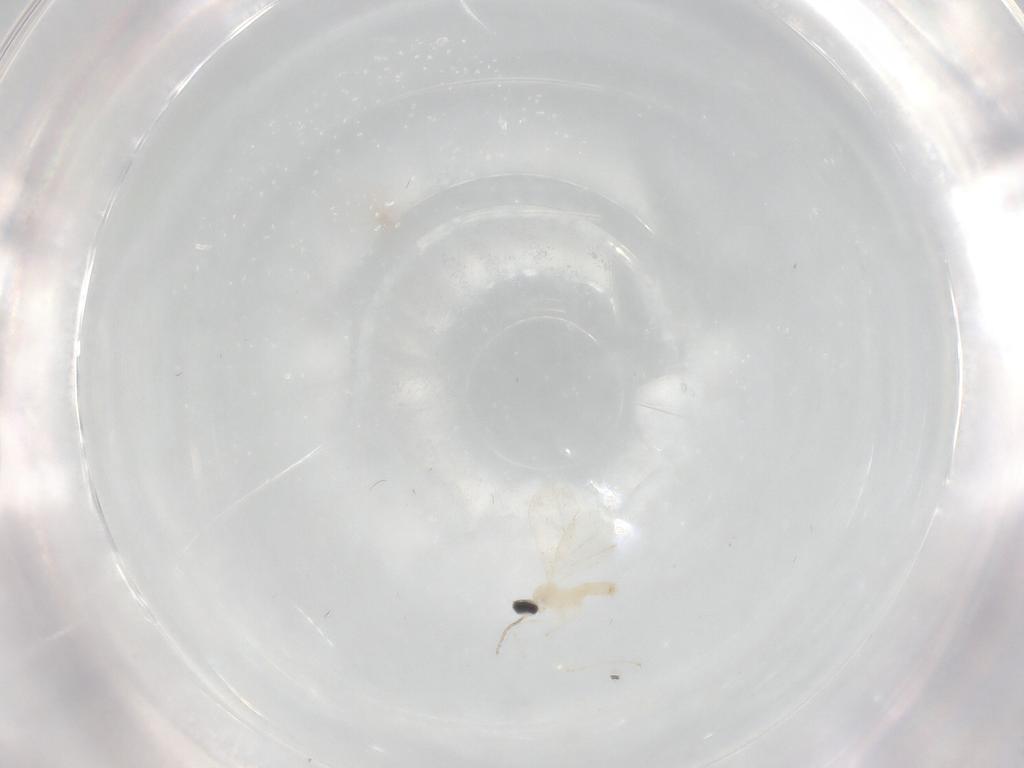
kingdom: Animalia
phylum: Arthropoda
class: Insecta
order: Diptera
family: Cecidomyiidae
